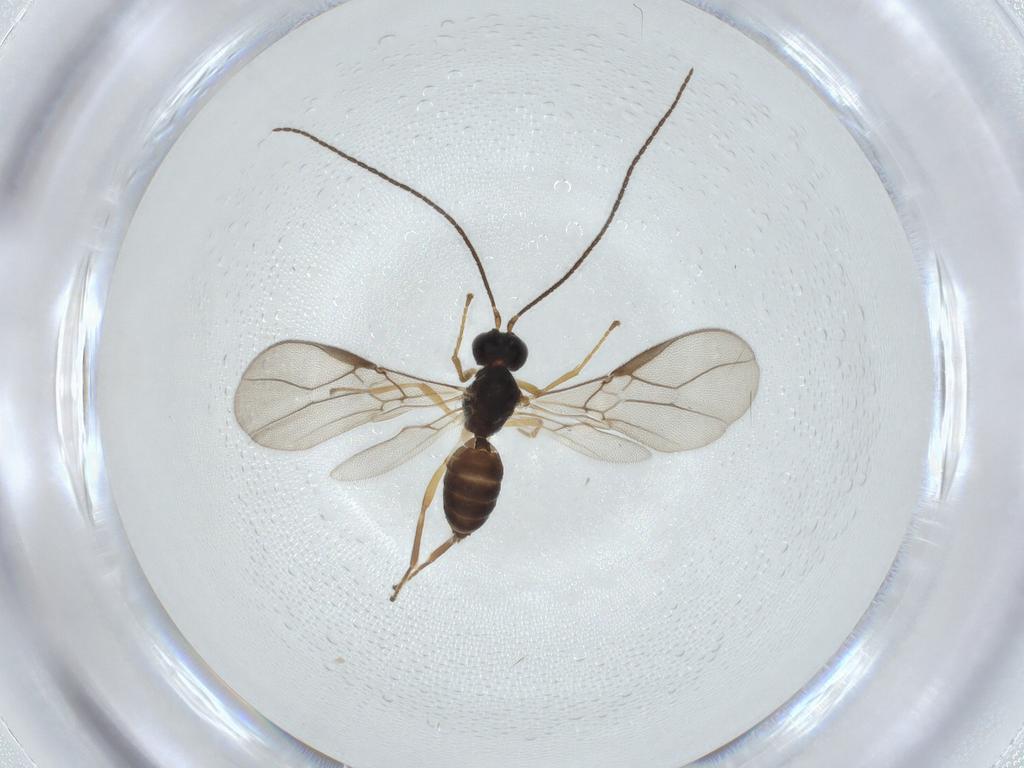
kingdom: Animalia
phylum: Arthropoda
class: Insecta
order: Hymenoptera
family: Braconidae
